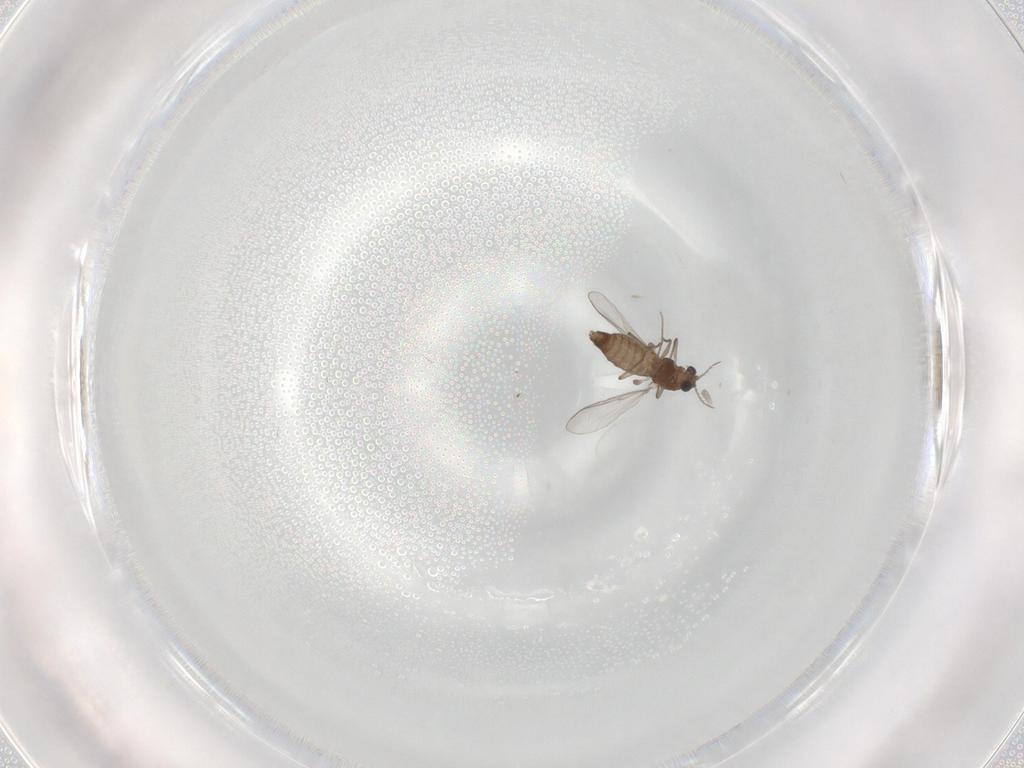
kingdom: Animalia
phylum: Arthropoda
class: Insecta
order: Diptera
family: Chironomidae
